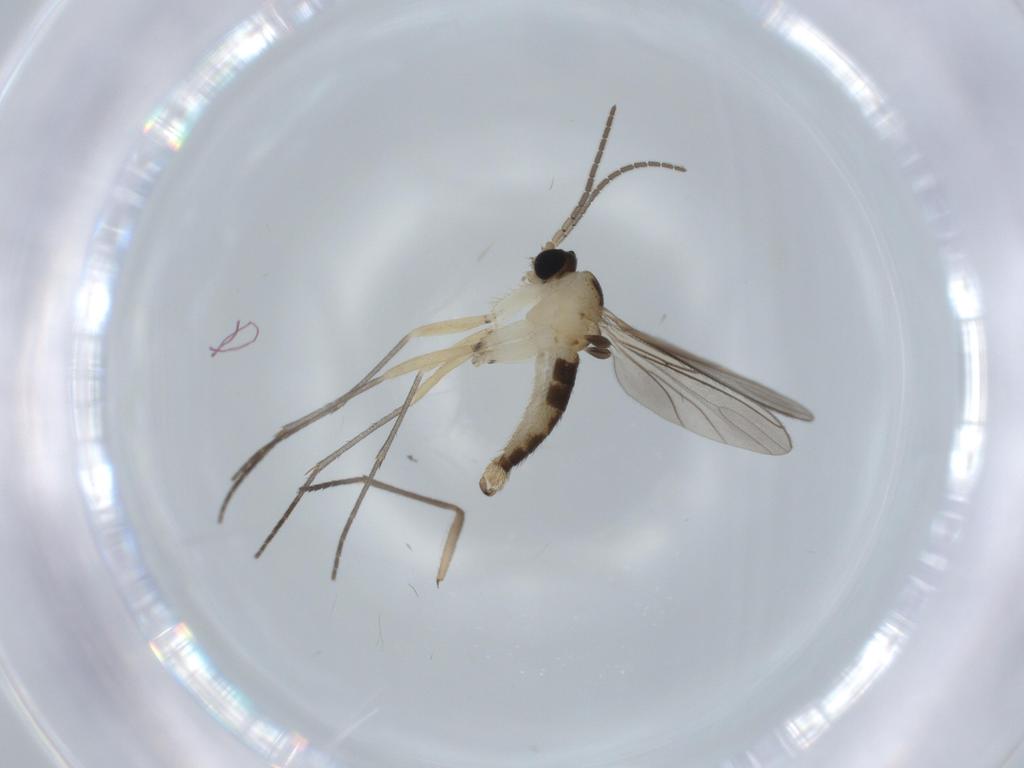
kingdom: Animalia
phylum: Arthropoda
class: Insecta
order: Diptera
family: Sciaridae
